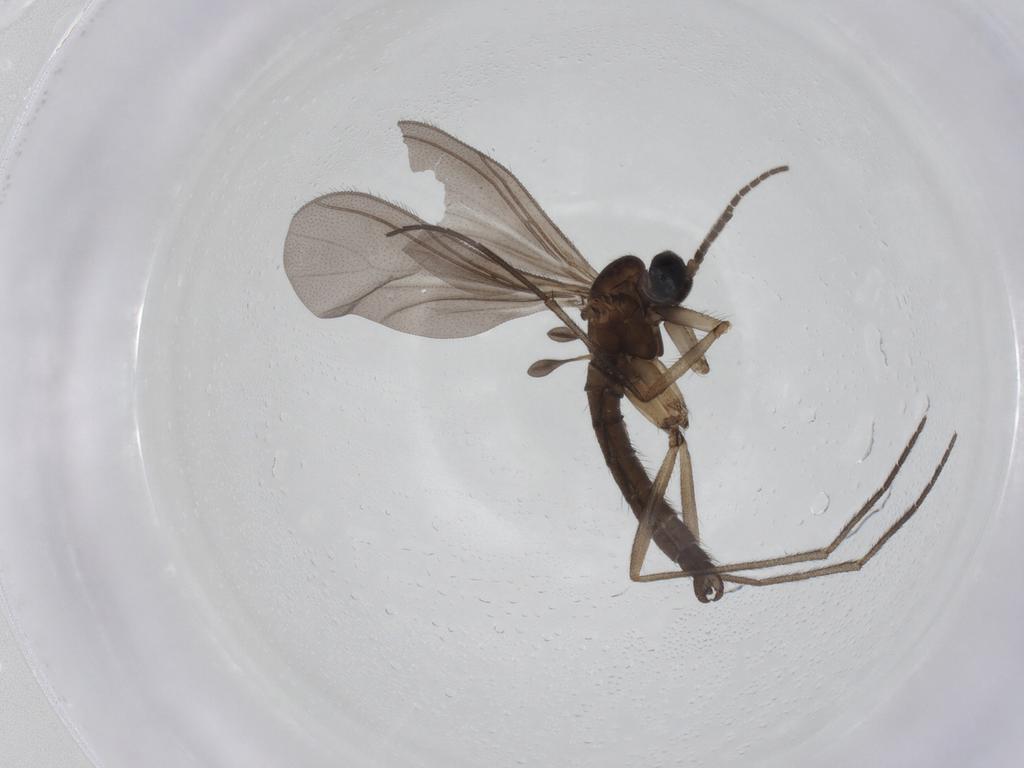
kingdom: Animalia
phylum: Arthropoda
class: Insecta
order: Diptera
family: Sciaridae
